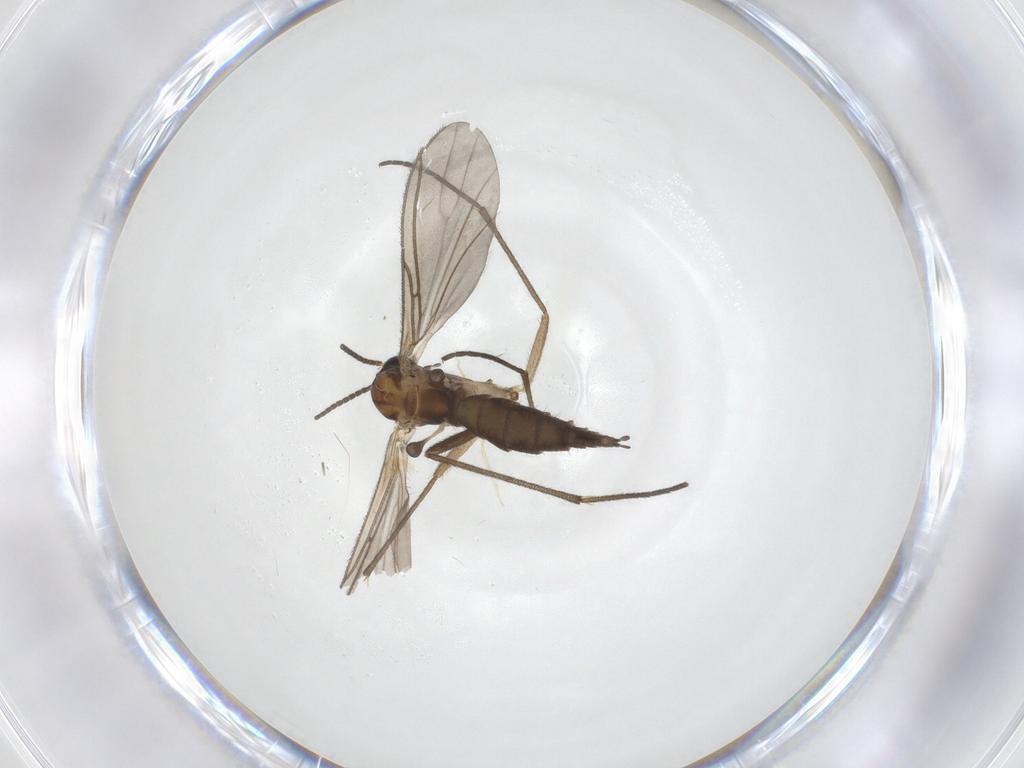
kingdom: Animalia
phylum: Arthropoda
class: Insecta
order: Diptera
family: Sciaridae
